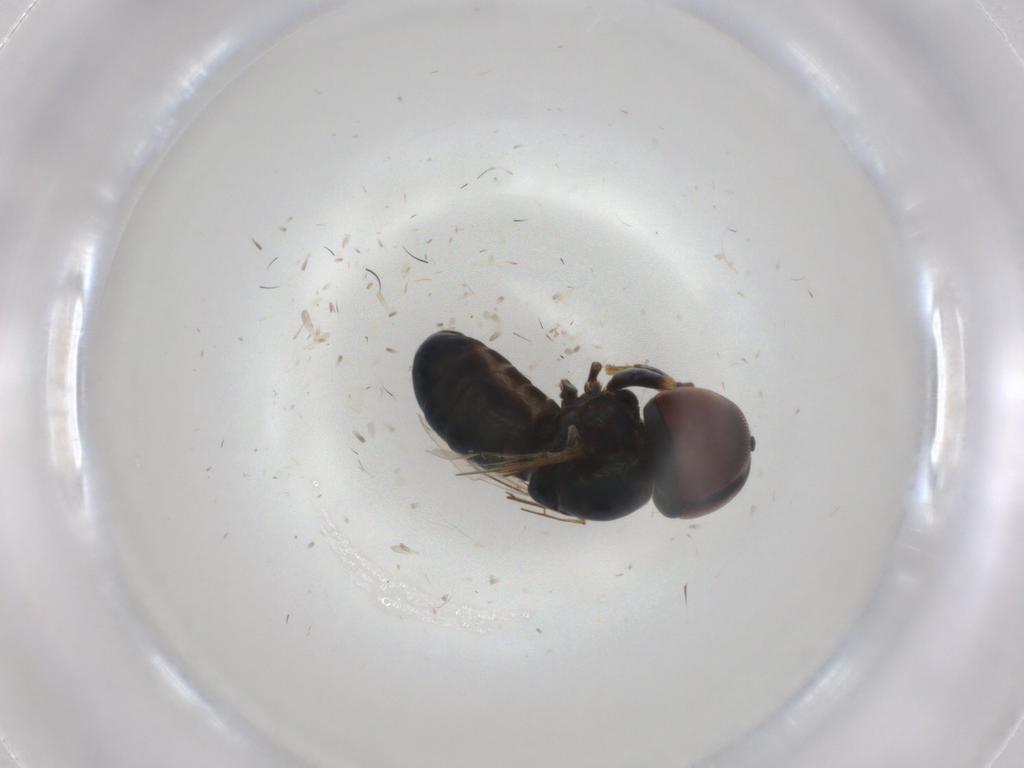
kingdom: Animalia
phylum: Arthropoda
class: Insecta
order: Diptera
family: Pipunculidae
